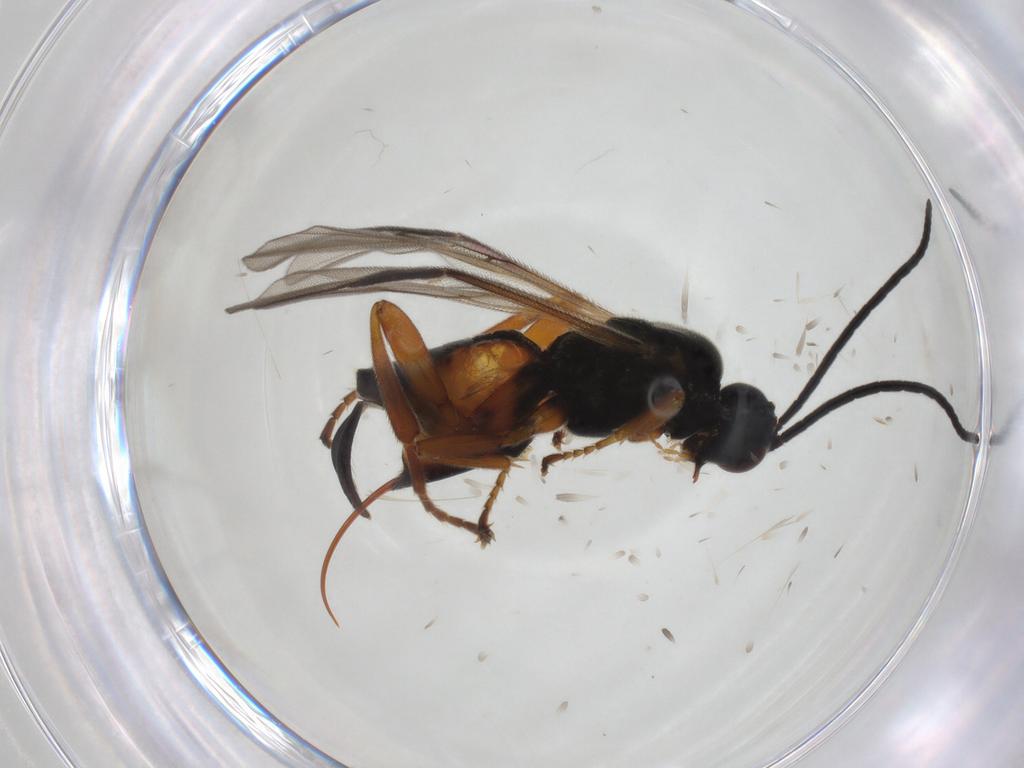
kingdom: Animalia
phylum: Arthropoda
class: Insecta
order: Lepidoptera
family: Tortricidae
